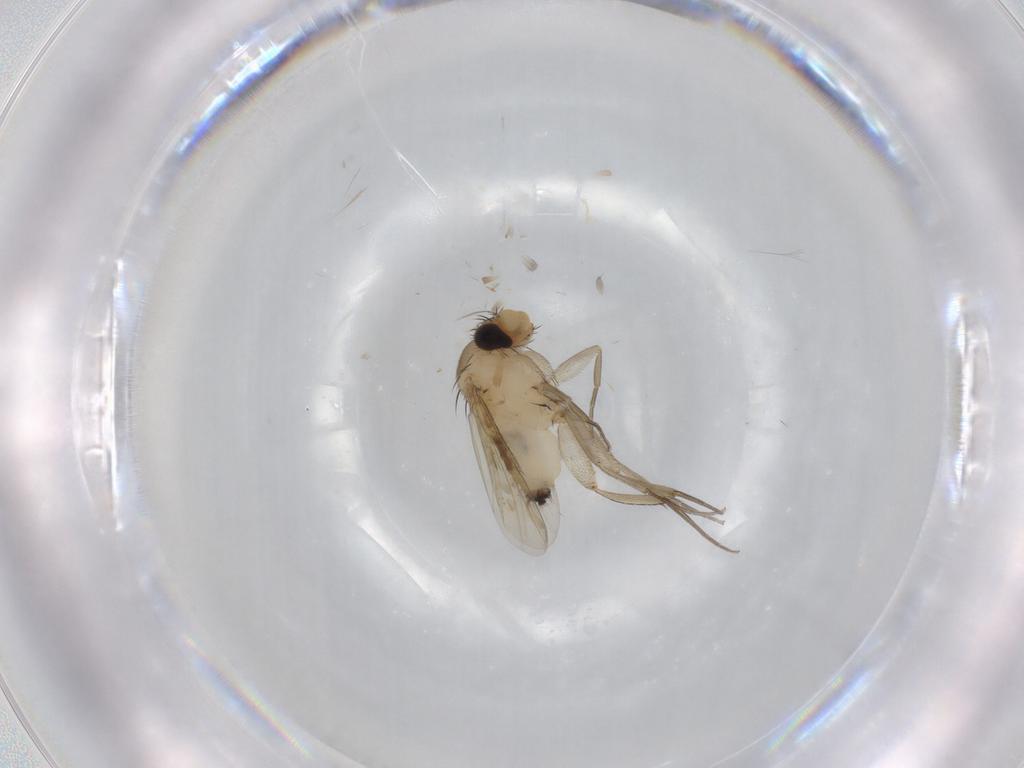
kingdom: Animalia
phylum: Arthropoda
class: Insecta
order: Diptera
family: Phoridae
